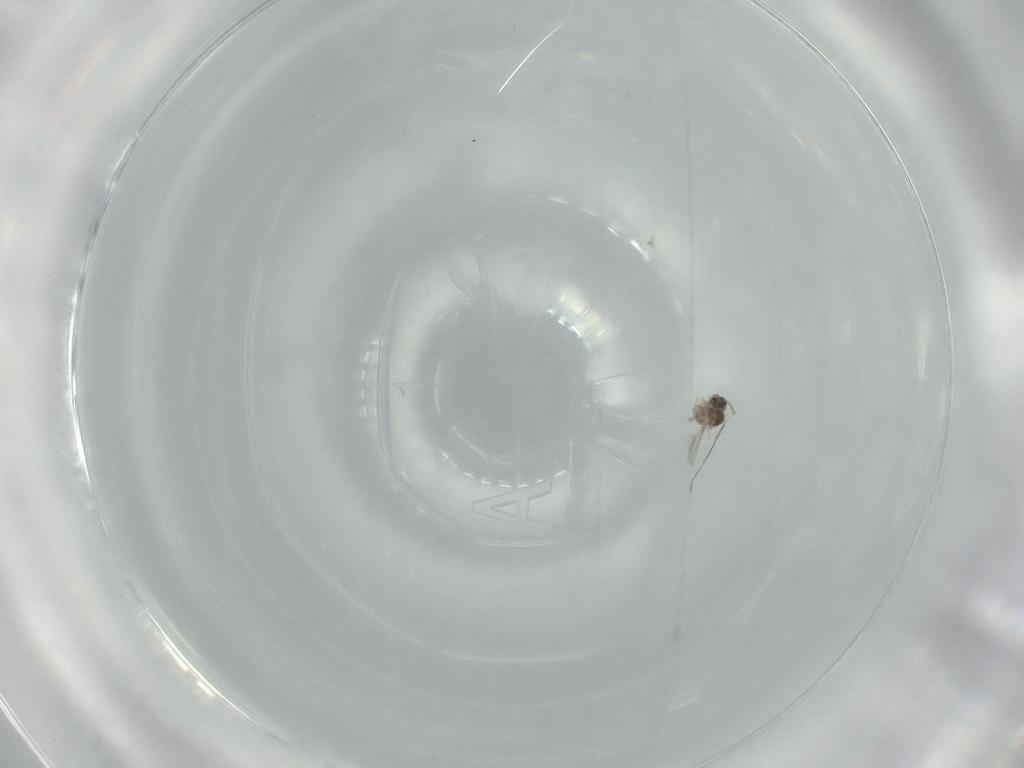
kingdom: Animalia
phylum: Arthropoda
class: Insecta
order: Diptera
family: Cecidomyiidae
